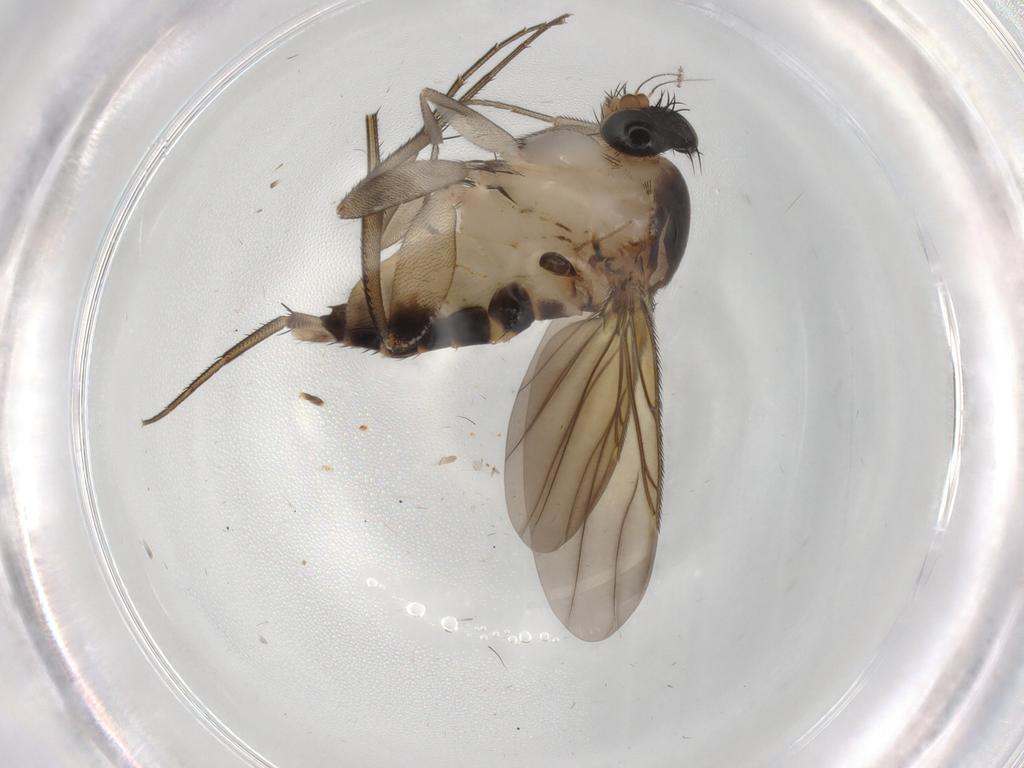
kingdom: Animalia
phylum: Arthropoda
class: Insecta
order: Diptera
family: Phoridae
